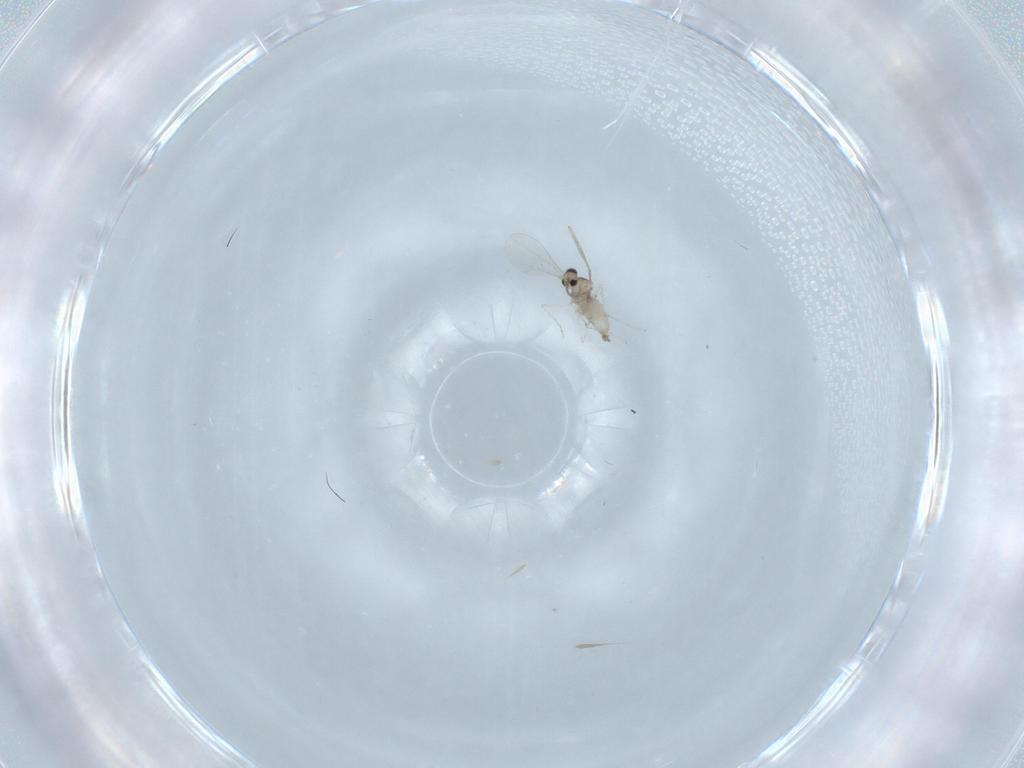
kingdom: Animalia
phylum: Arthropoda
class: Insecta
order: Diptera
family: Cecidomyiidae
